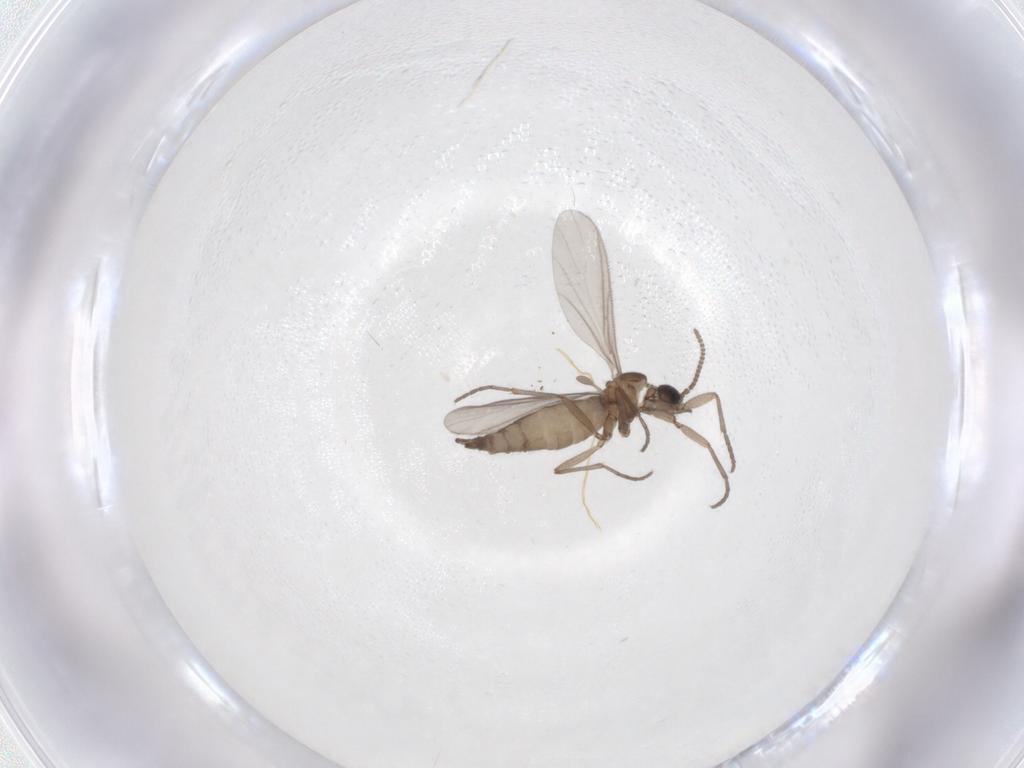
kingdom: Animalia
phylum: Arthropoda
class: Insecta
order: Diptera
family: Sciaridae
